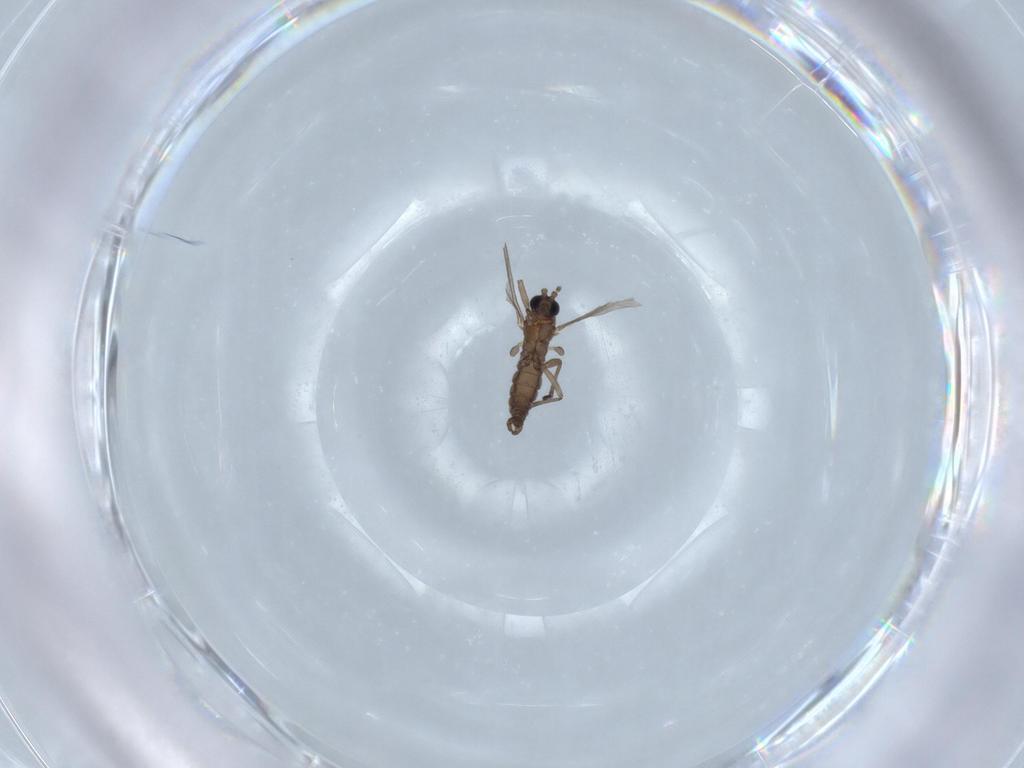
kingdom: Animalia
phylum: Arthropoda
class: Insecta
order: Diptera
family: Sciaridae
